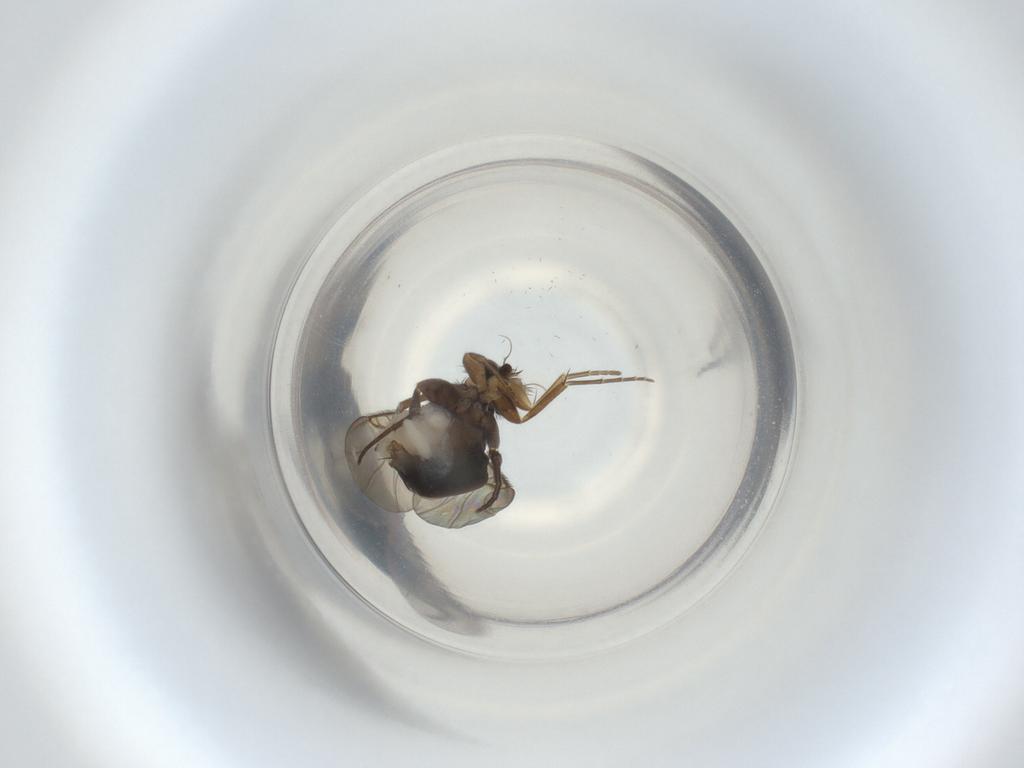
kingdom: Animalia
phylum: Arthropoda
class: Insecta
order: Diptera
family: Phoridae
